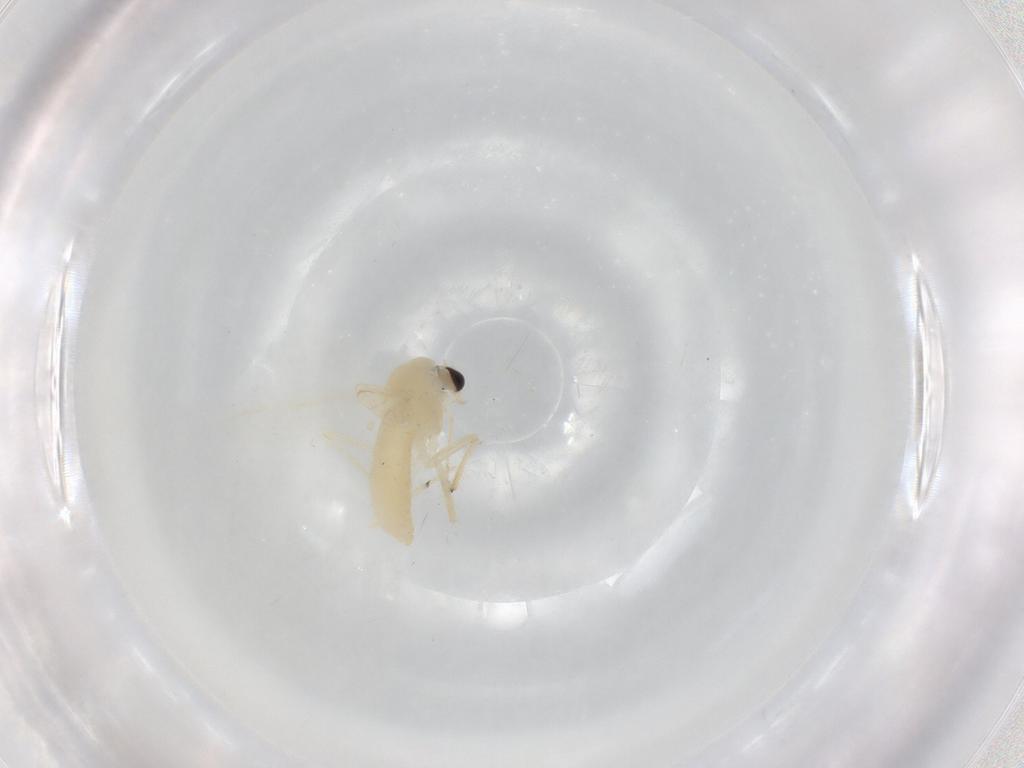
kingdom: Animalia
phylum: Arthropoda
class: Insecta
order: Diptera
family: Chironomidae
